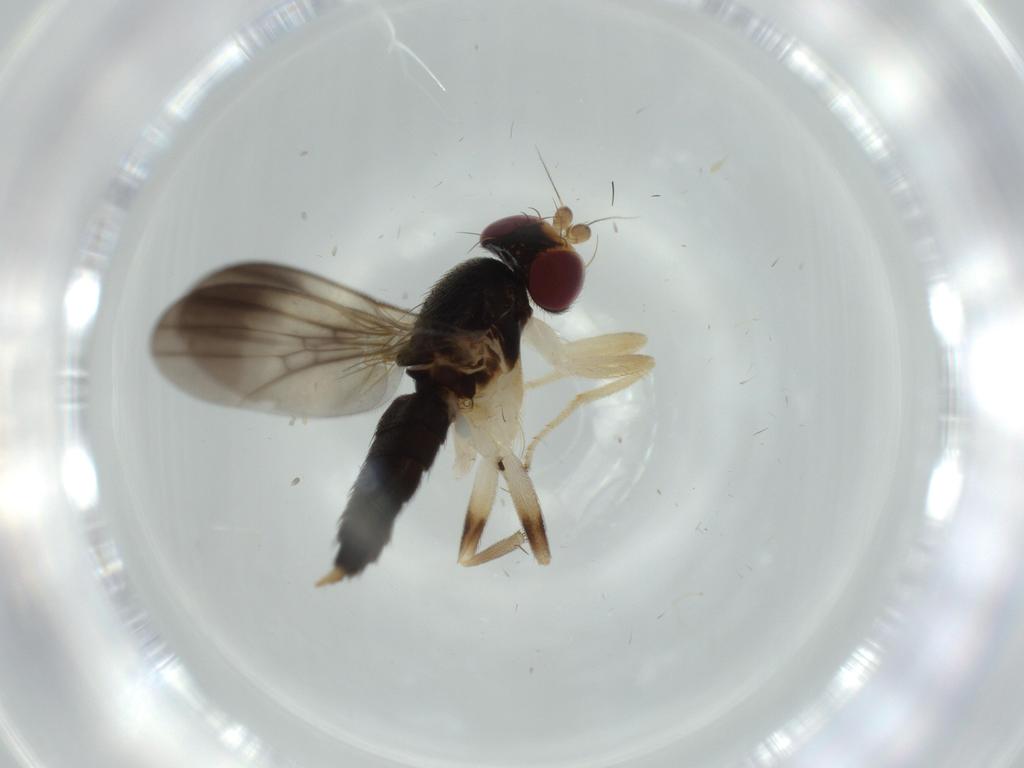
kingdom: Animalia
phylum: Arthropoda
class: Insecta
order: Diptera
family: Cecidomyiidae
